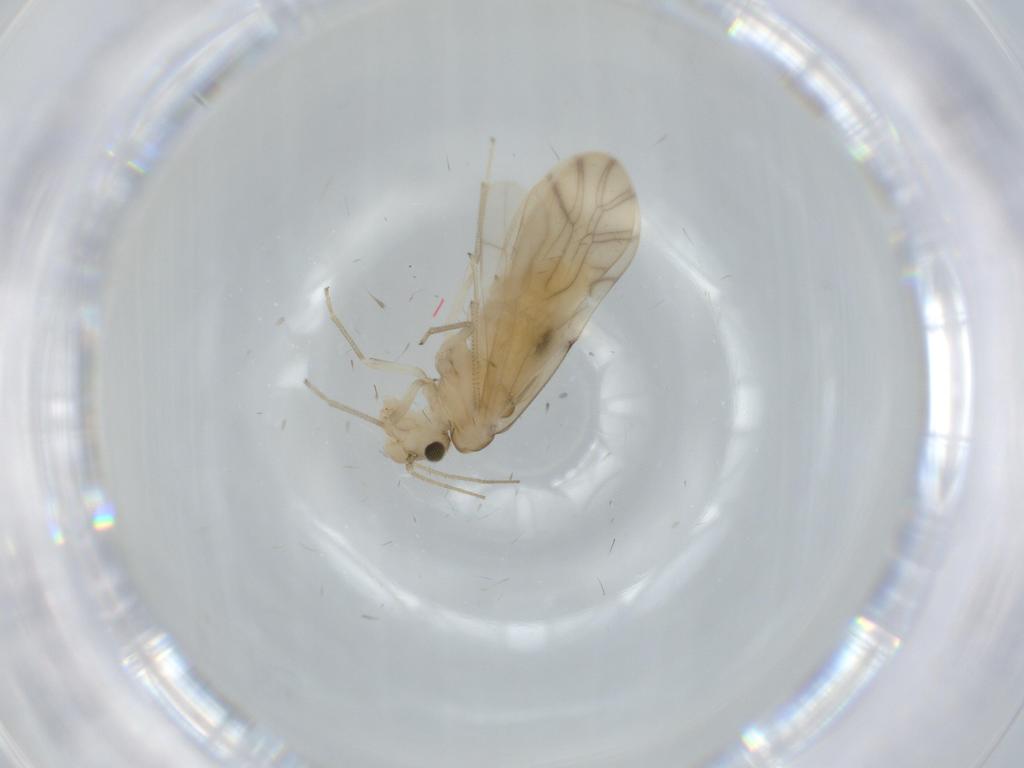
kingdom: Animalia
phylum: Arthropoda
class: Insecta
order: Psocodea
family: Caeciliusidae
